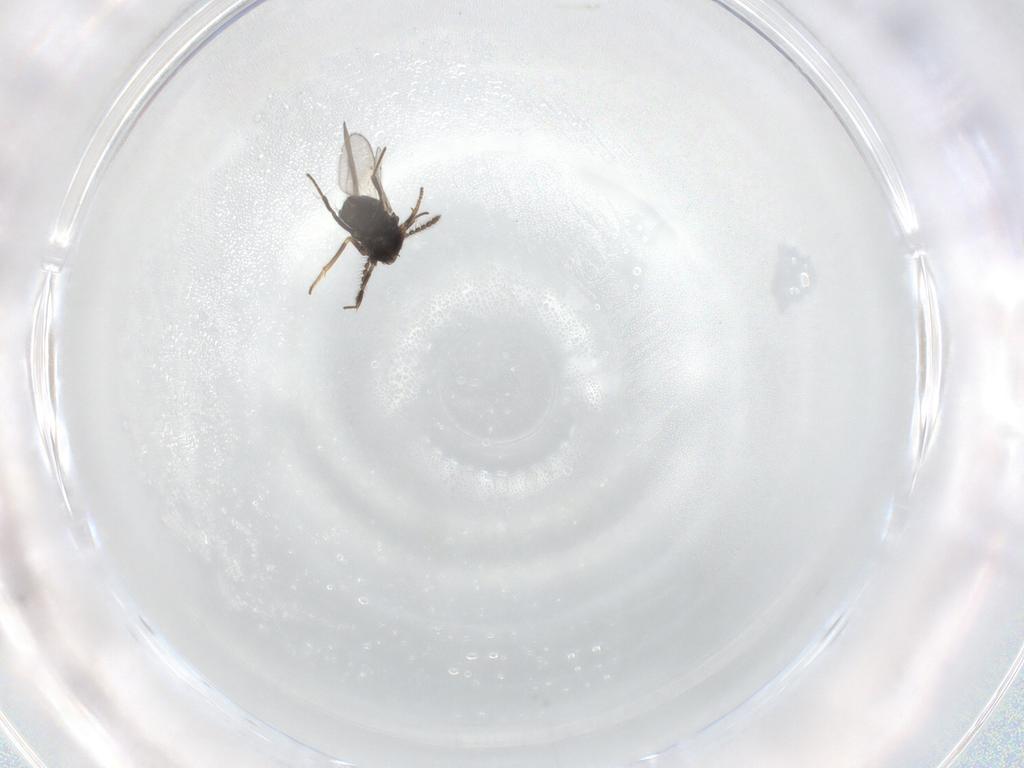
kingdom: Animalia
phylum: Arthropoda
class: Insecta
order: Hymenoptera
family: Encyrtidae
